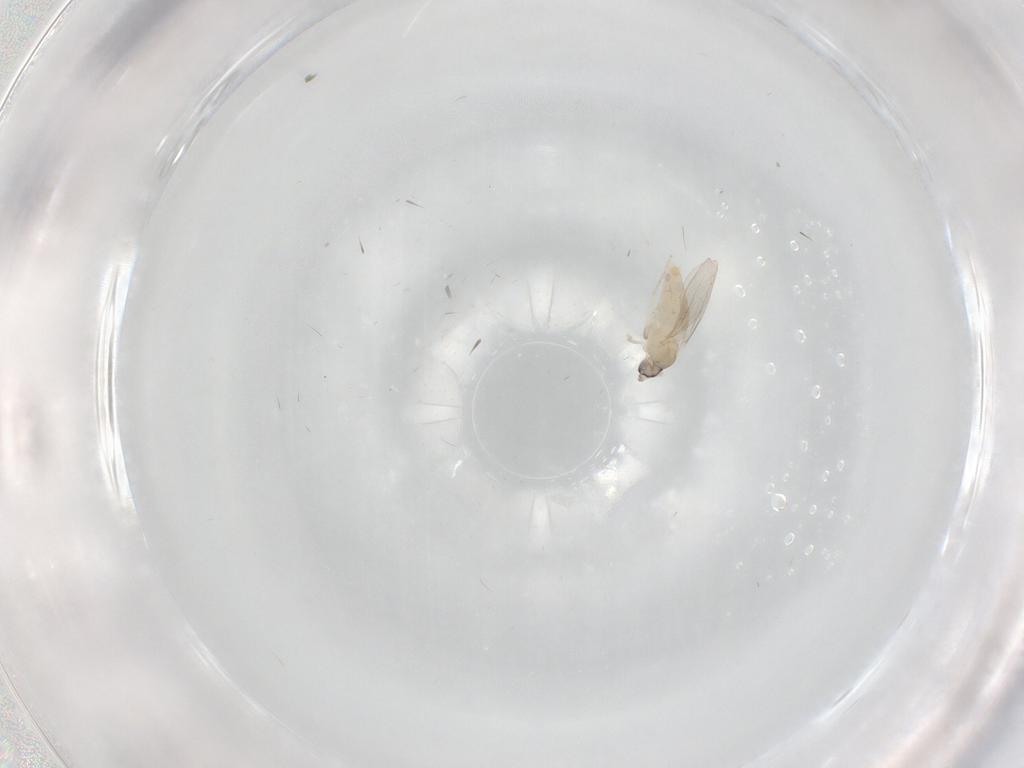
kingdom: Animalia
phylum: Arthropoda
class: Insecta
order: Diptera
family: Cecidomyiidae
